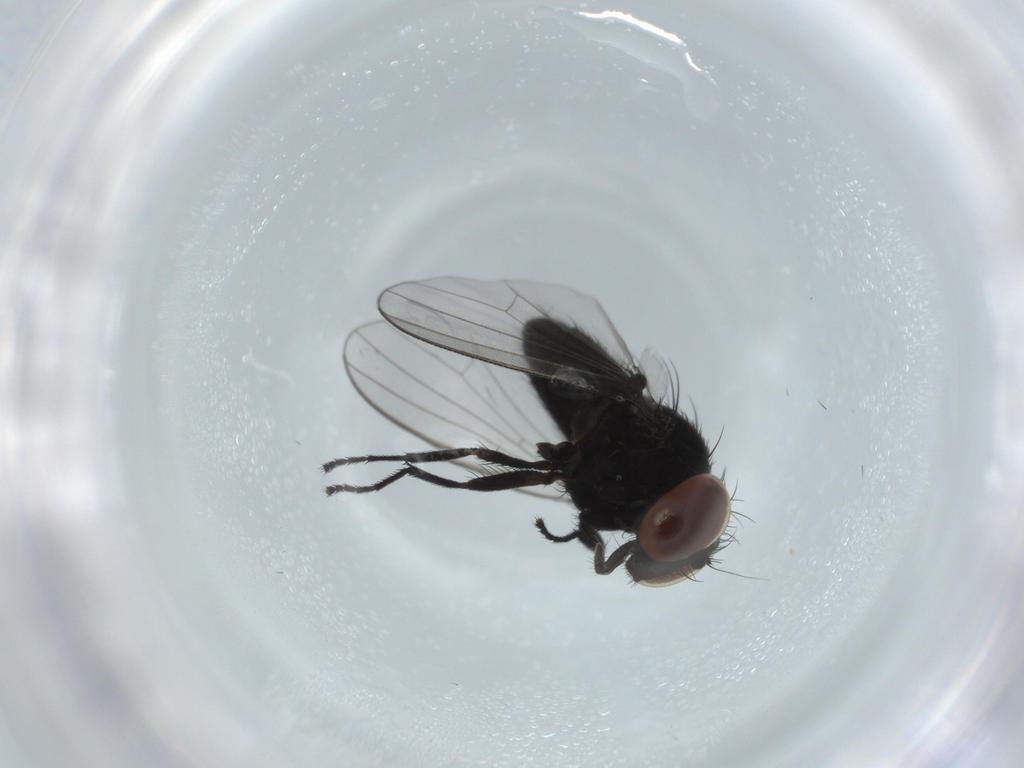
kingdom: Animalia
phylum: Arthropoda
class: Insecta
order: Diptera
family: Milichiidae
